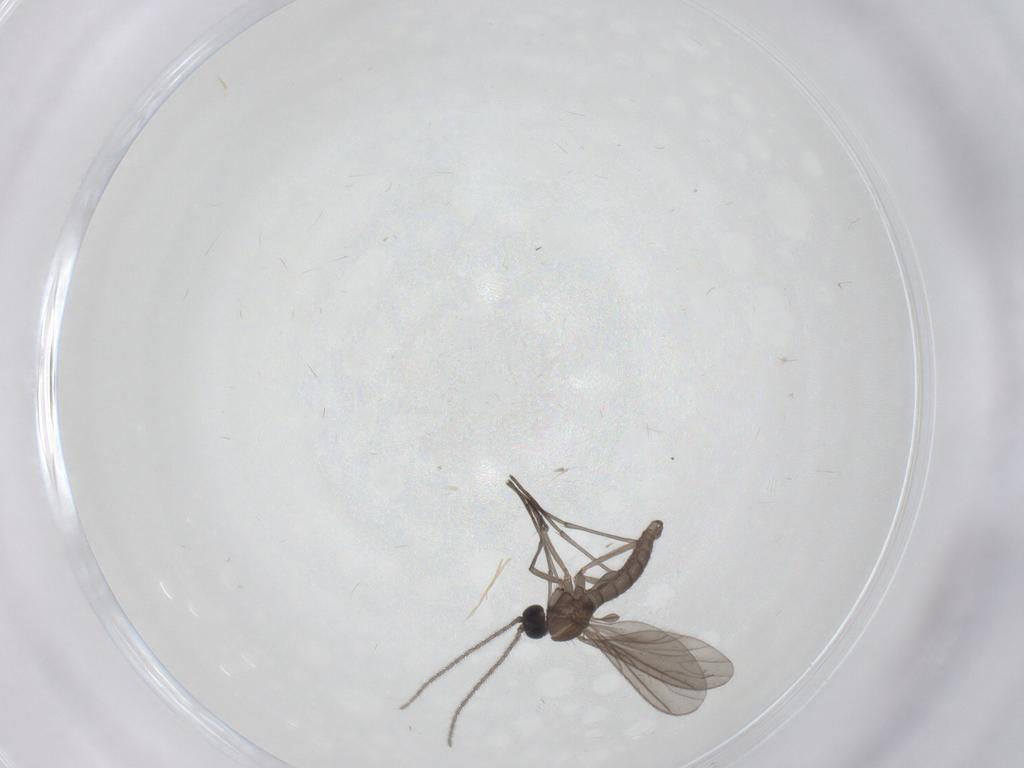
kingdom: Animalia
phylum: Arthropoda
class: Insecta
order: Diptera
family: Chironomidae
